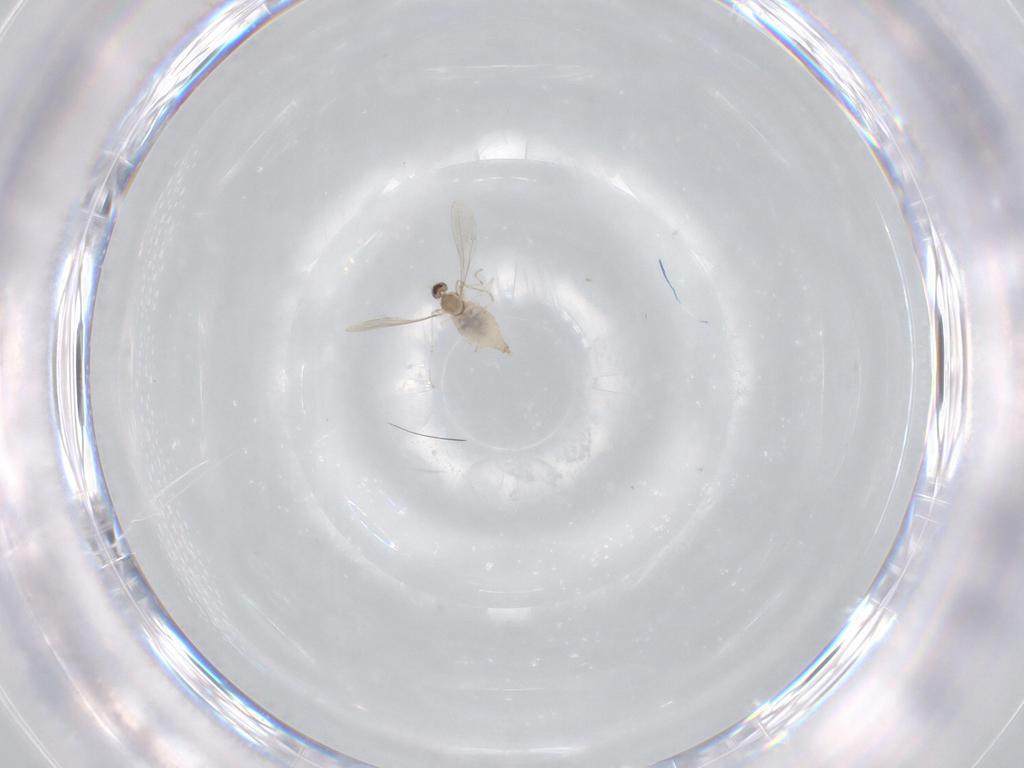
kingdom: Animalia
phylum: Arthropoda
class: Insecta
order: Diptera
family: Cecidomyiidae
